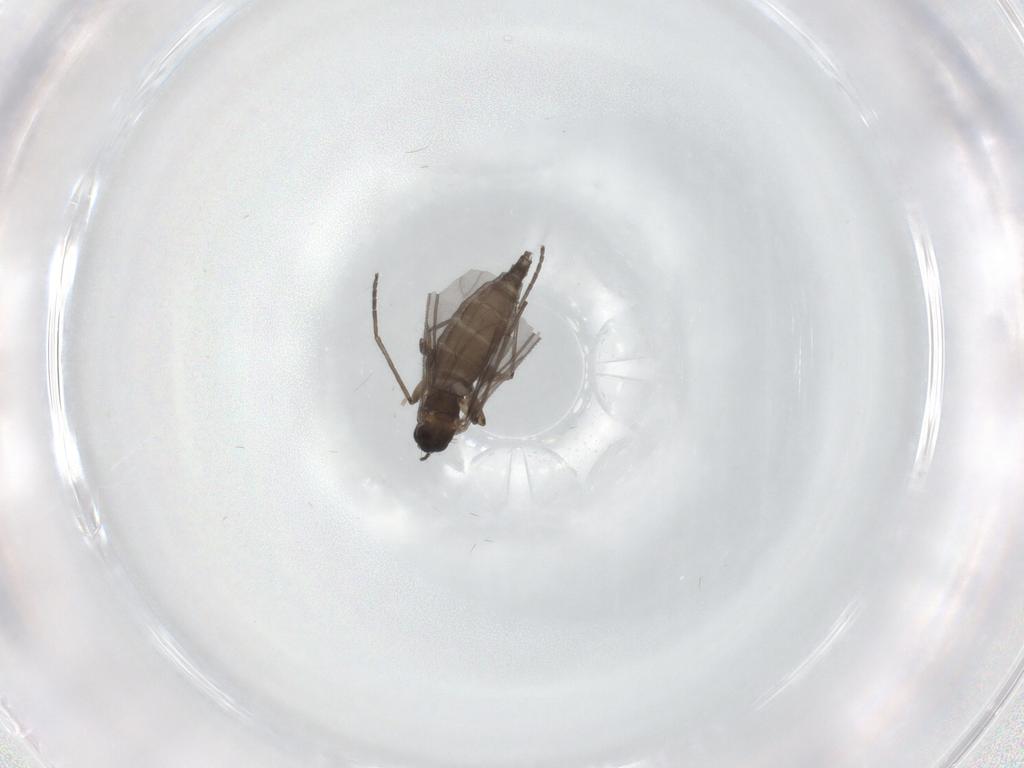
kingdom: Animalia
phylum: Arthropoda
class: Insecta
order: Diptera
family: Sciaridae
